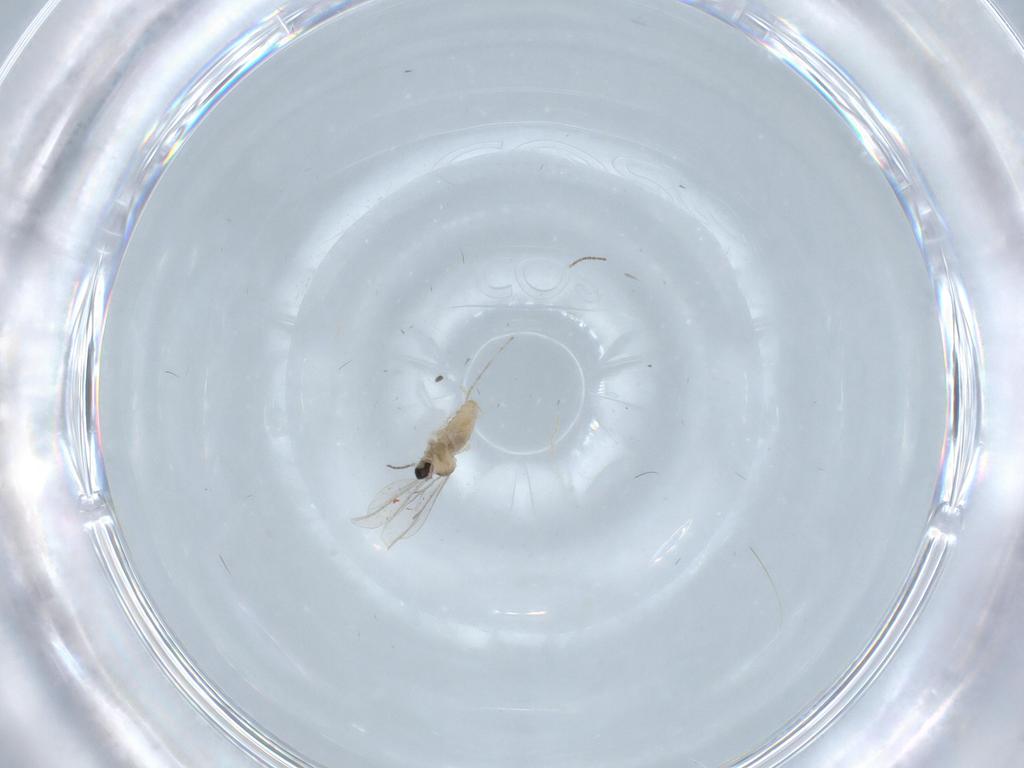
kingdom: Animalia
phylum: Arthropoda
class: Insecta
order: Diptera
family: Cecidomyiidae
